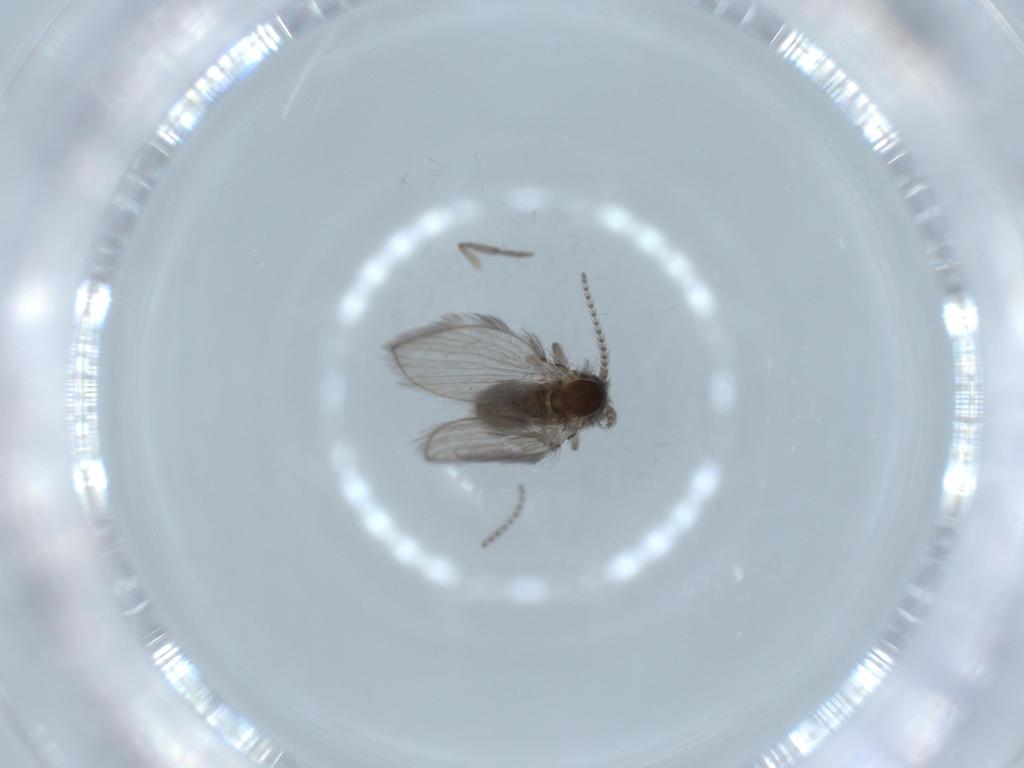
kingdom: Animalia
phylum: Arthropoda
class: Insecta
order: Diptera
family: Psychodidae
